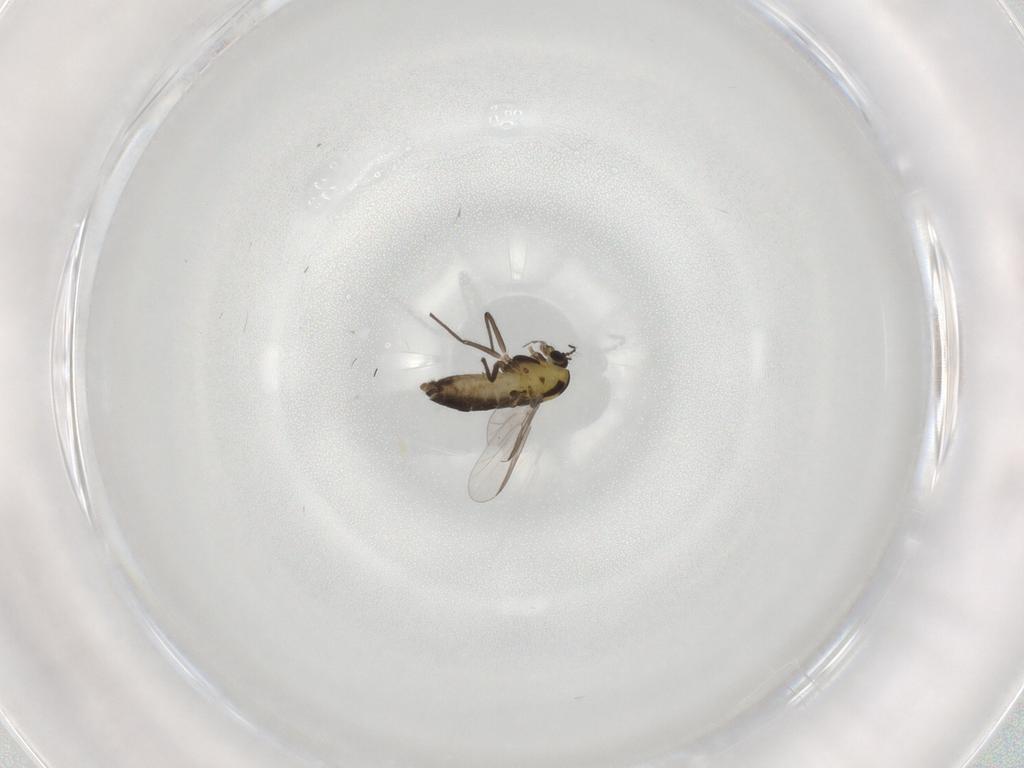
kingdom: Animalia
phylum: Arthropoda
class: Insecta
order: Diptera
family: Chironomidae
